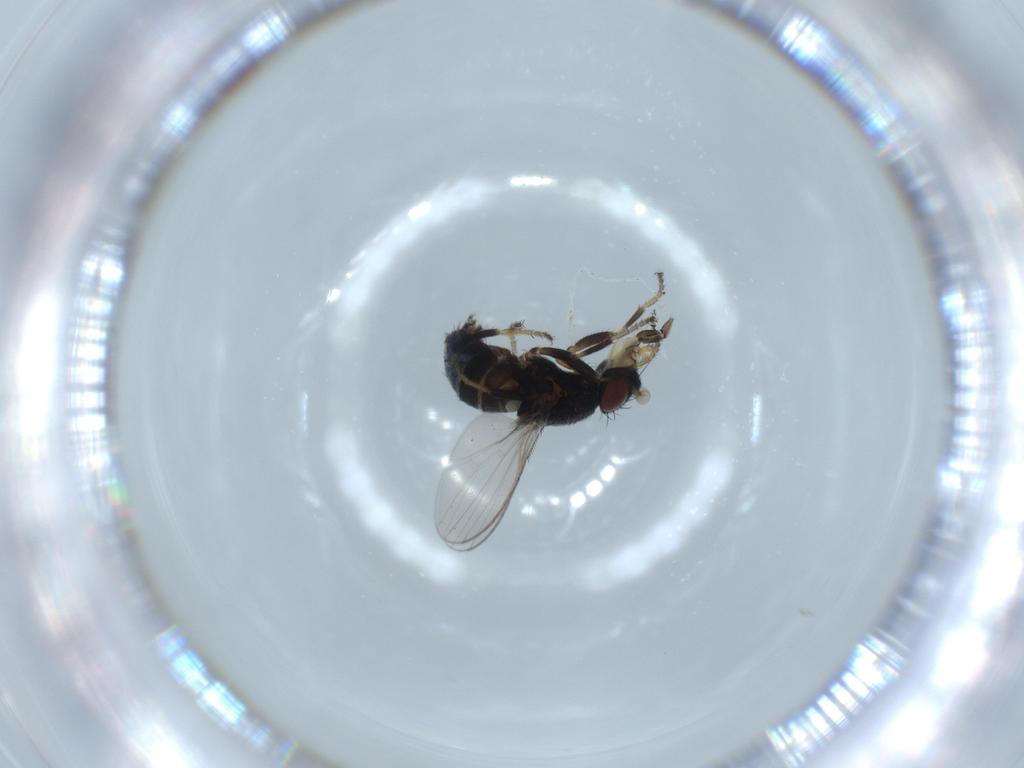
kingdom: Animalia
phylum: Arthropoda
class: Insecta
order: Diptera
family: Milichiidae
